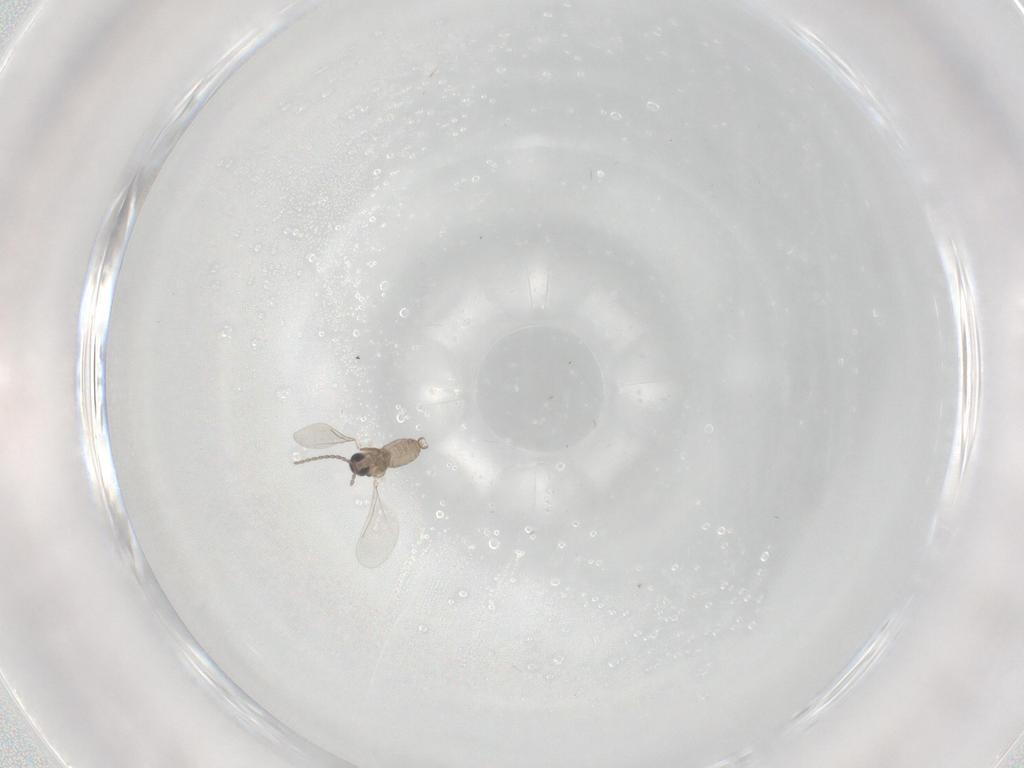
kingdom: Animalia
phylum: Arthropoda
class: Insecta
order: Diptera
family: Cecidomyiidae
